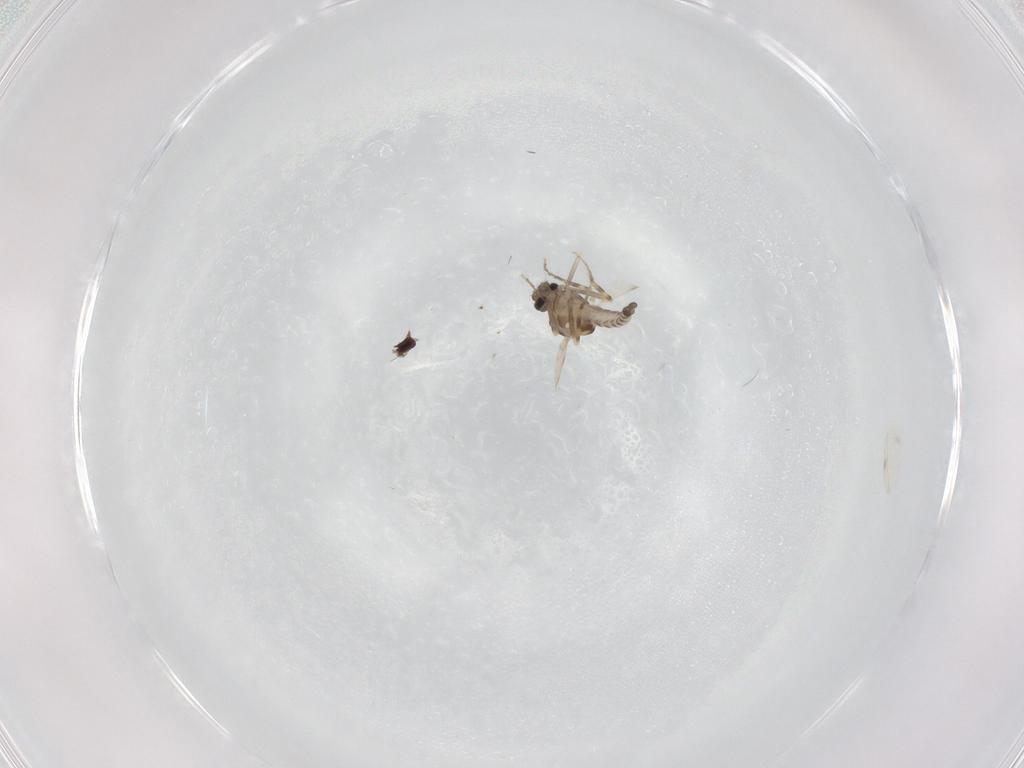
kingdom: Animalia
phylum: Arthropoda
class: Insecta
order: Diptera
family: Ceratopogonidae
